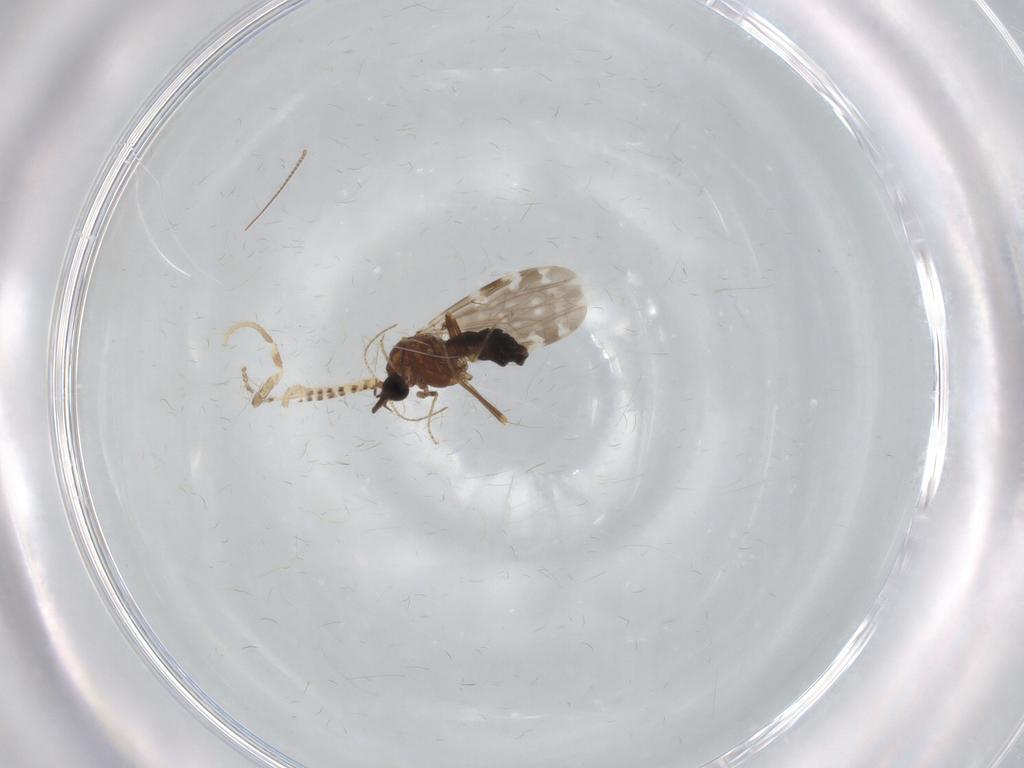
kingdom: Animalia
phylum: Arthropoda
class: Insecta
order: Diptera
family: Ceratopogonidae
